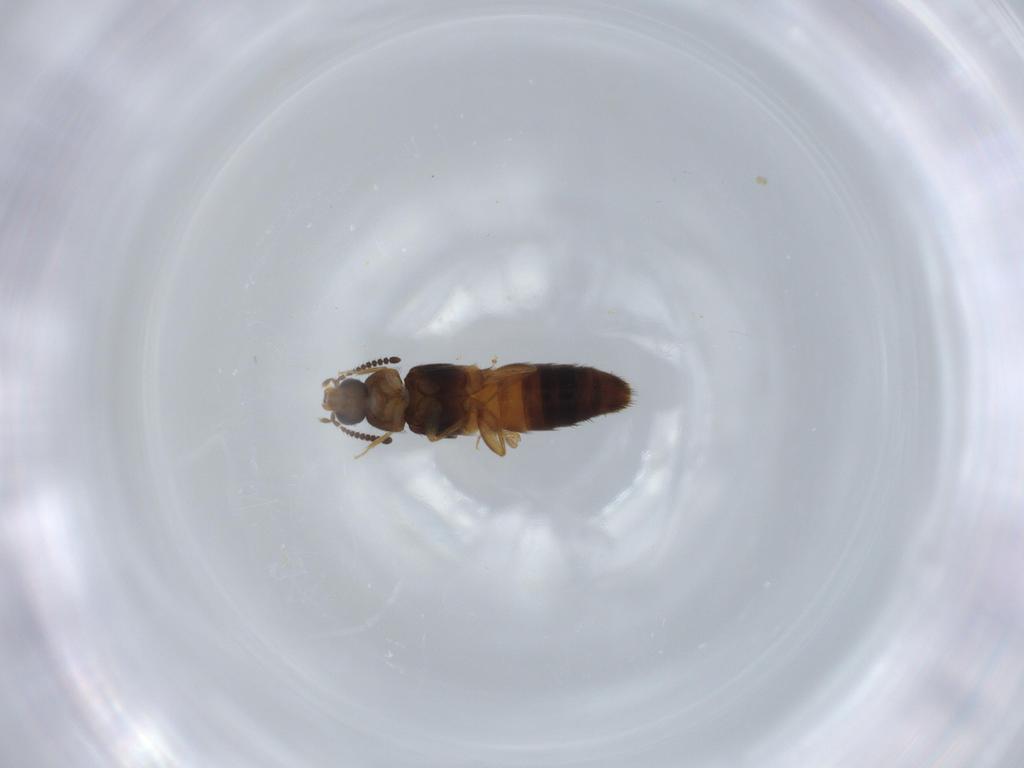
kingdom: Animalia
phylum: Arthropoda
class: Insecta
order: Coleoptera
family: Staphylinidae
